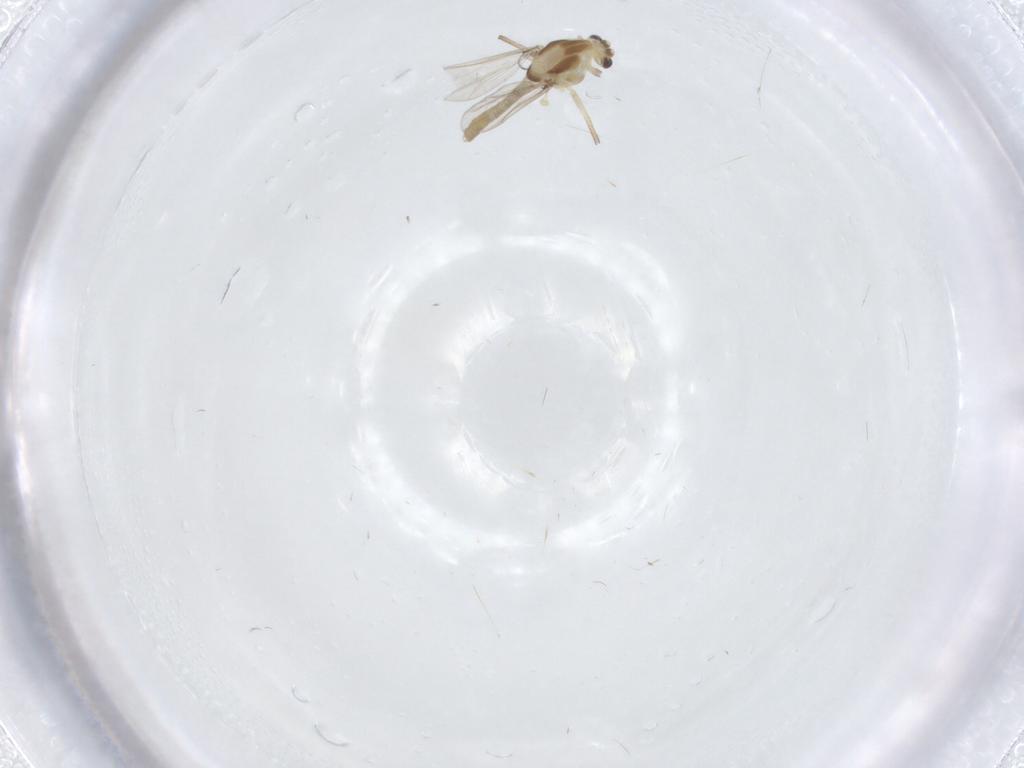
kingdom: Animalia
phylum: Arthropoda
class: Insecta
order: Diptera
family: Chironomidae
